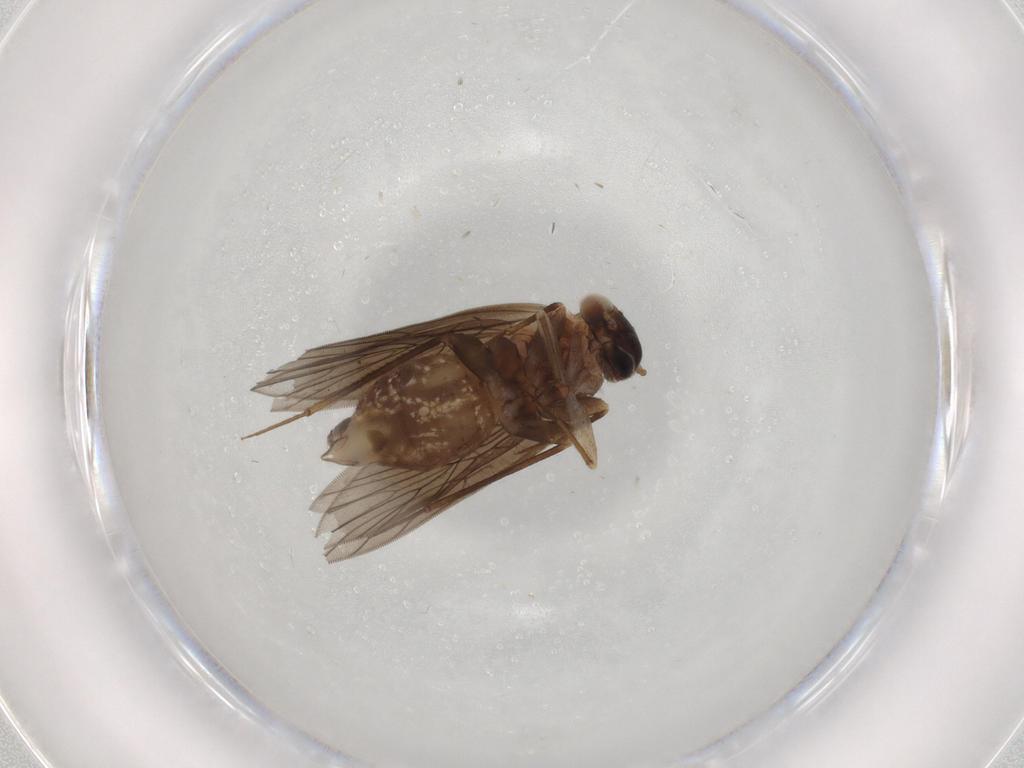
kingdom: Animalia
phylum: Arthropoda
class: Insecta
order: Psocodea
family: Lepidopsocidae
